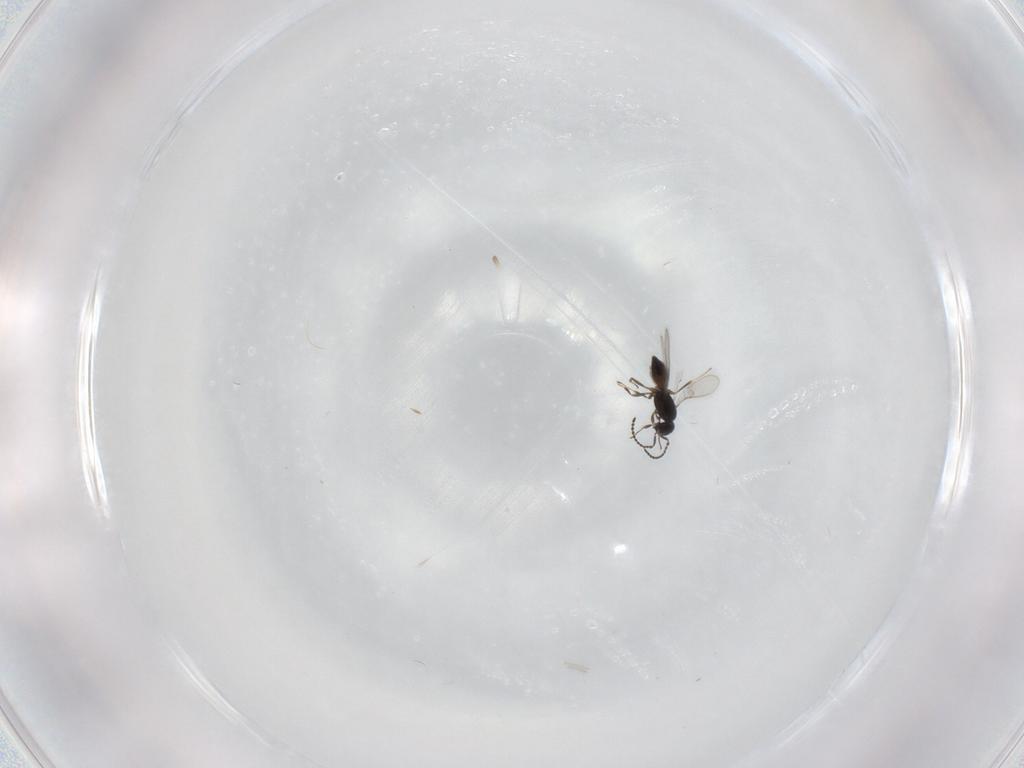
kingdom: Animalia
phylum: Arthropoda
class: Insecta
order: Hymenoptera
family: Scelionidae
